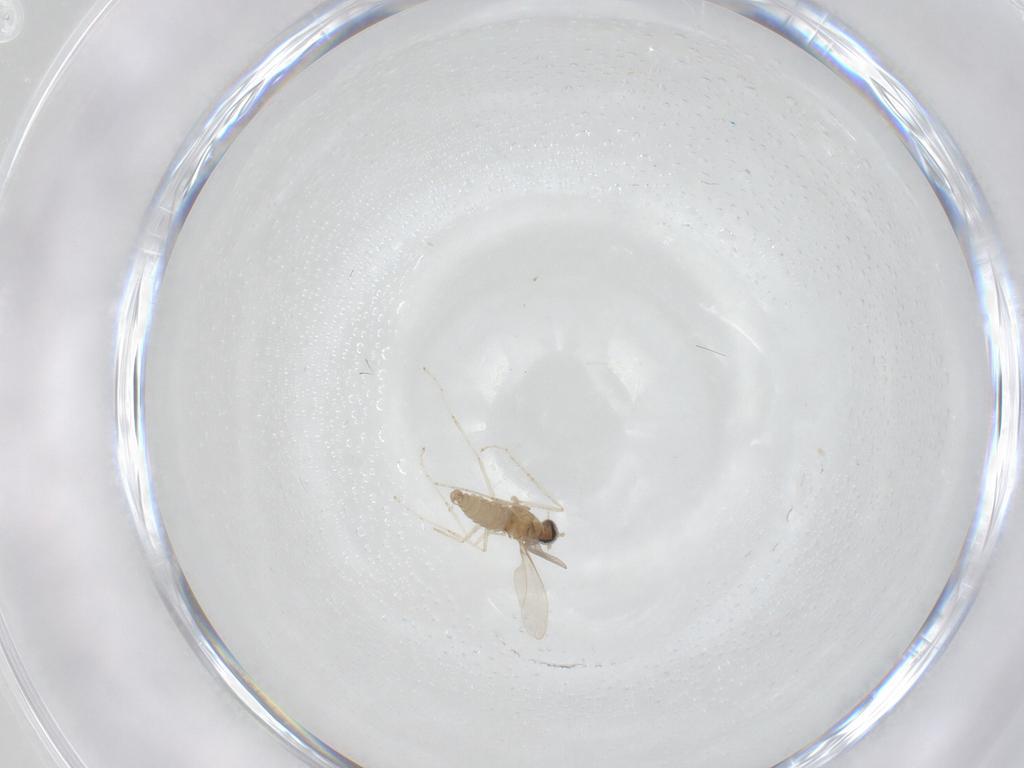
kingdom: Animalia
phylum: Arthropoda
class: Insecta
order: Diptera
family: Cecidomyiidae
